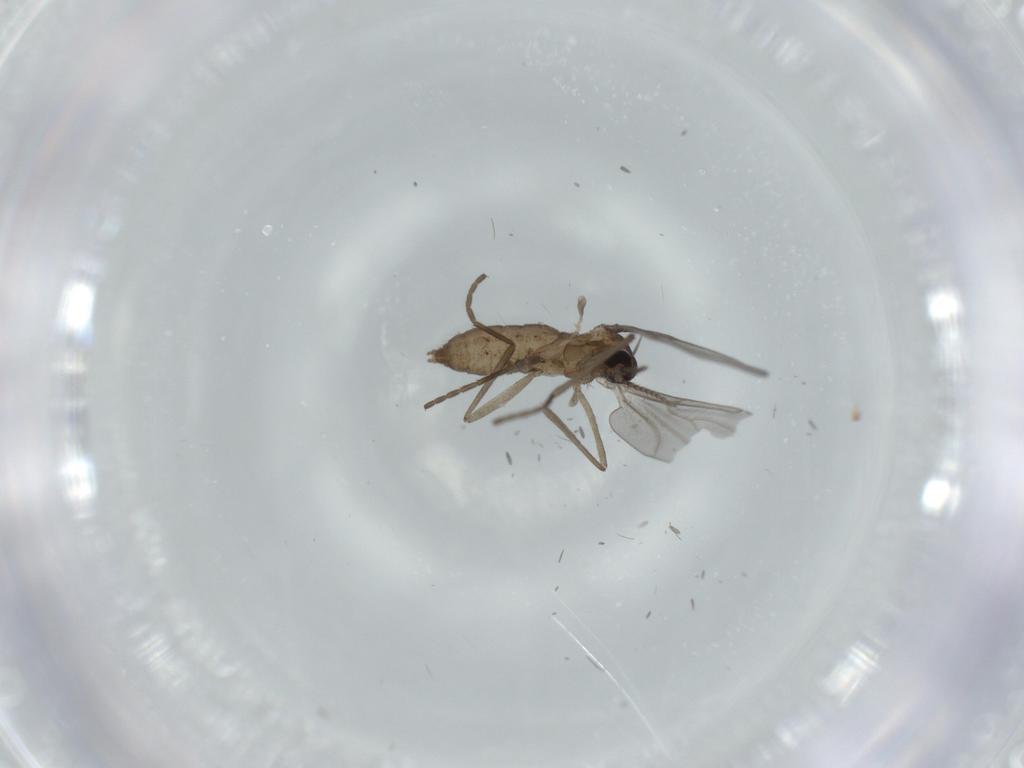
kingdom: Animalia
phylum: Arthropoda
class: Insecta
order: Diptera
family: Cecidomyiidae
